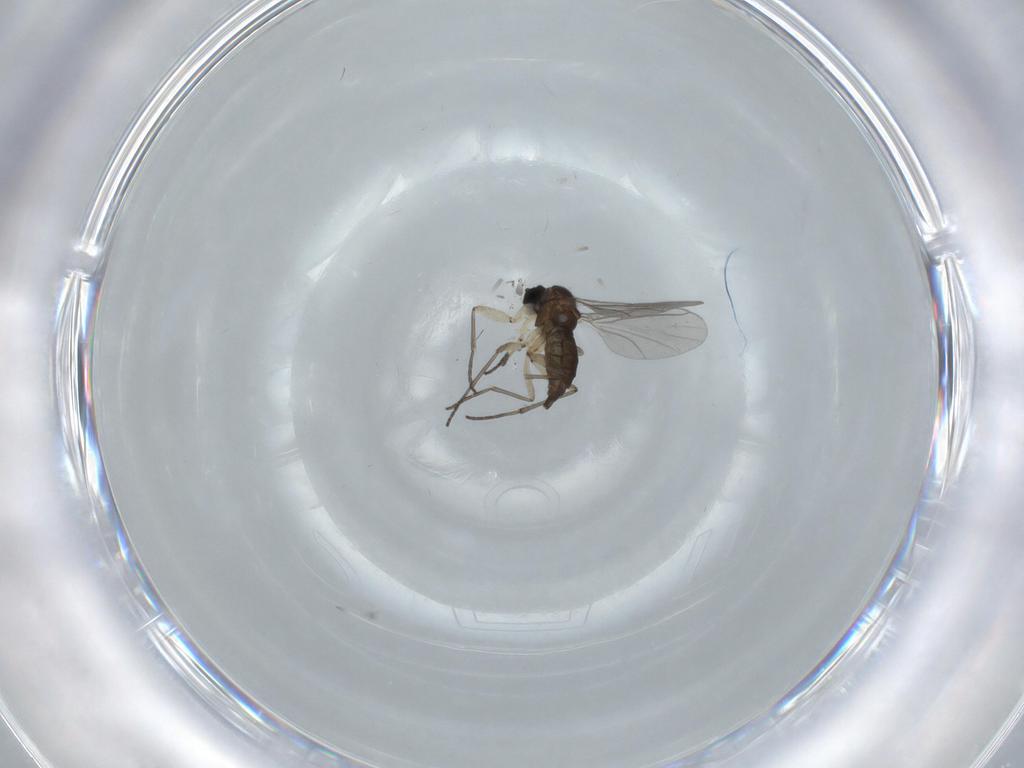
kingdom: Animalia
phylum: Arthropoda
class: Insecta
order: Diptera
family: Sciaridae
